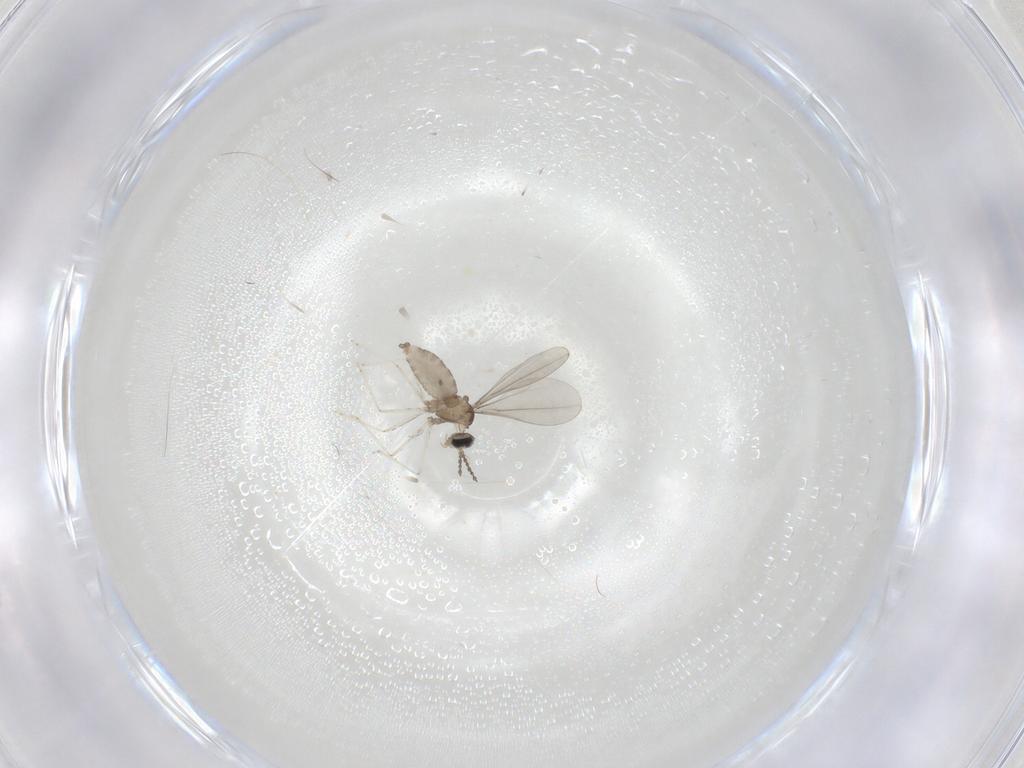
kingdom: Animalia
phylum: Arthropoda
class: Insecta
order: Diptera
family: Cecidomyiidae
